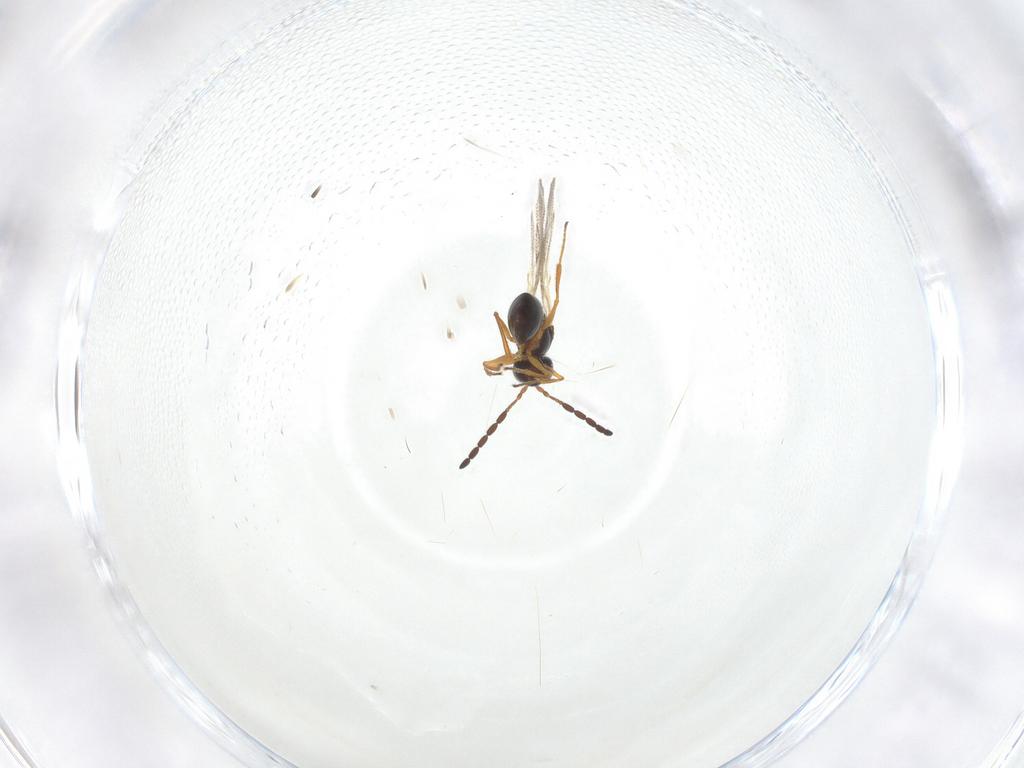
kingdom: Animalia
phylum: Arthropoda
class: Insecta
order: Hymenoptera
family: Figitidae
